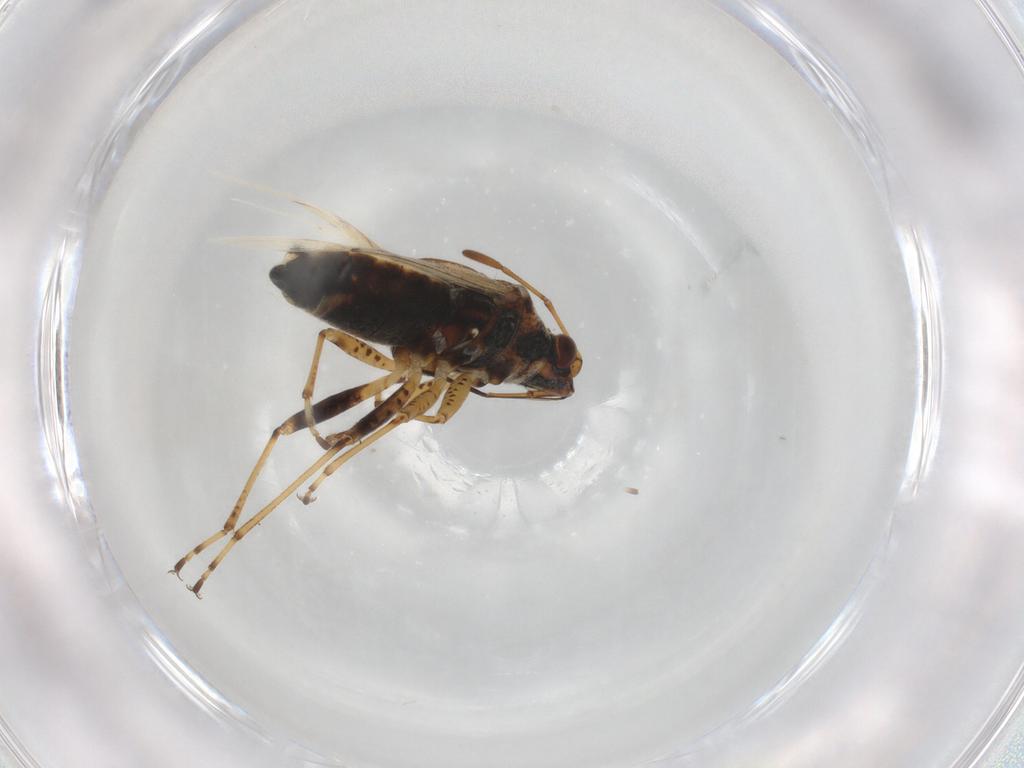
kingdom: Animalia
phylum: Arthropoda
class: Insecta
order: Hemiptera
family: Lygaeidae
